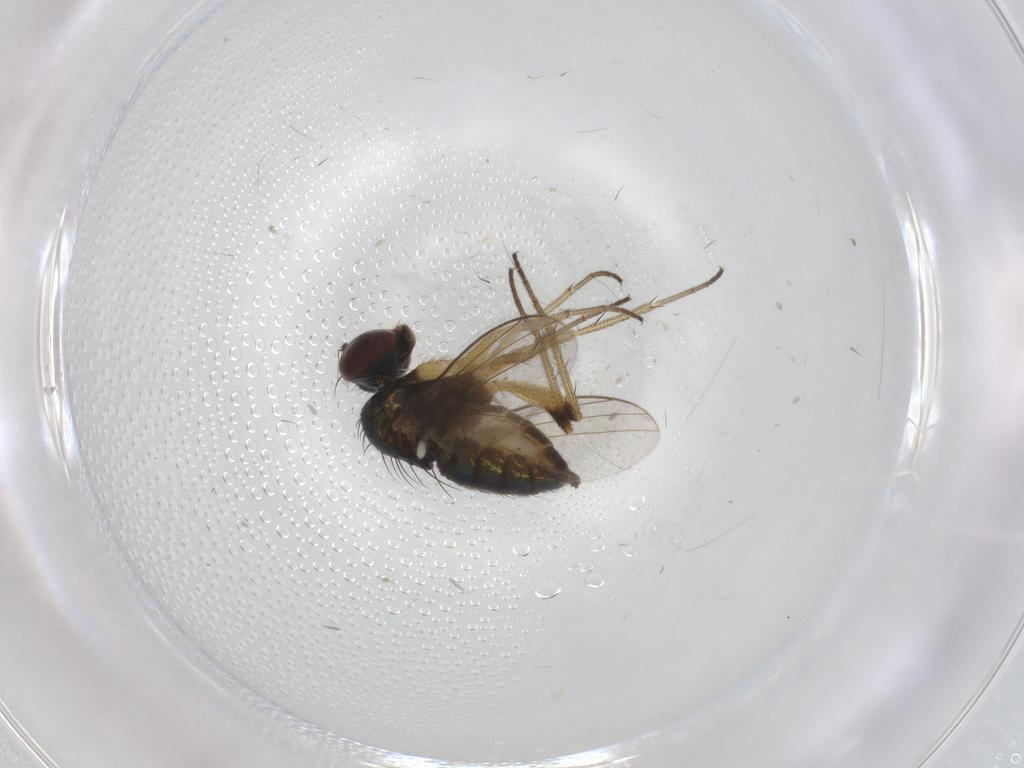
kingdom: Animalia
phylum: Arthropoda
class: Insecta
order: Diptera
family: Dolichopodidae
